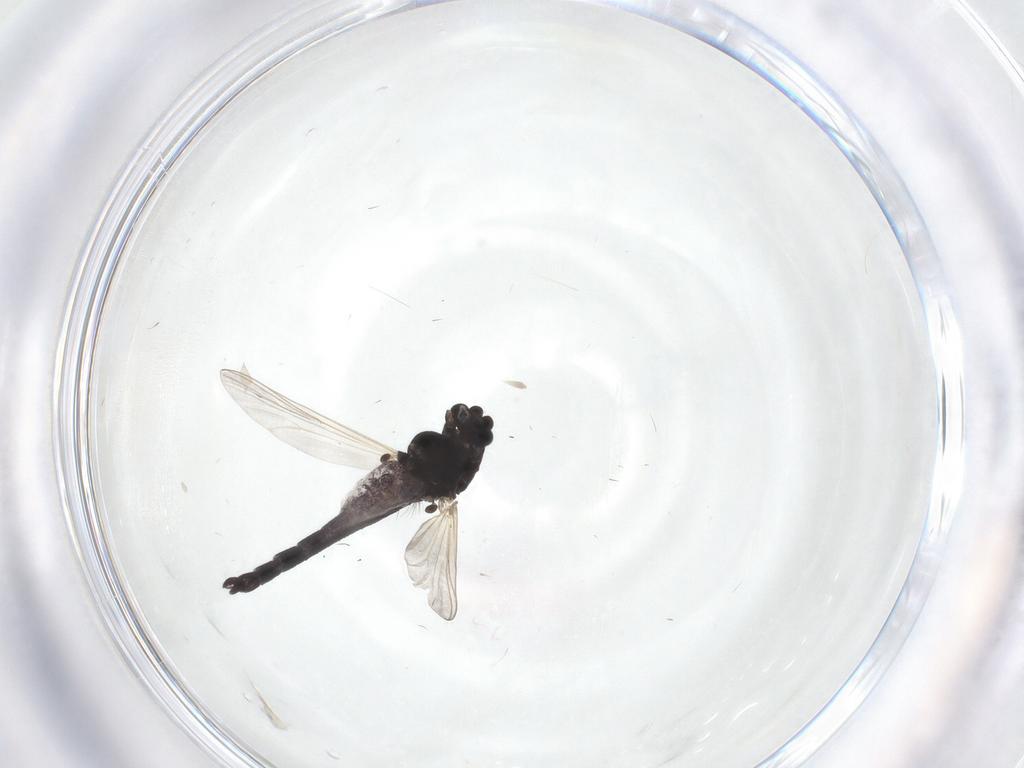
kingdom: Animalia
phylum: Arthropoda
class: Insecta
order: Diptera
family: Chironomidae
